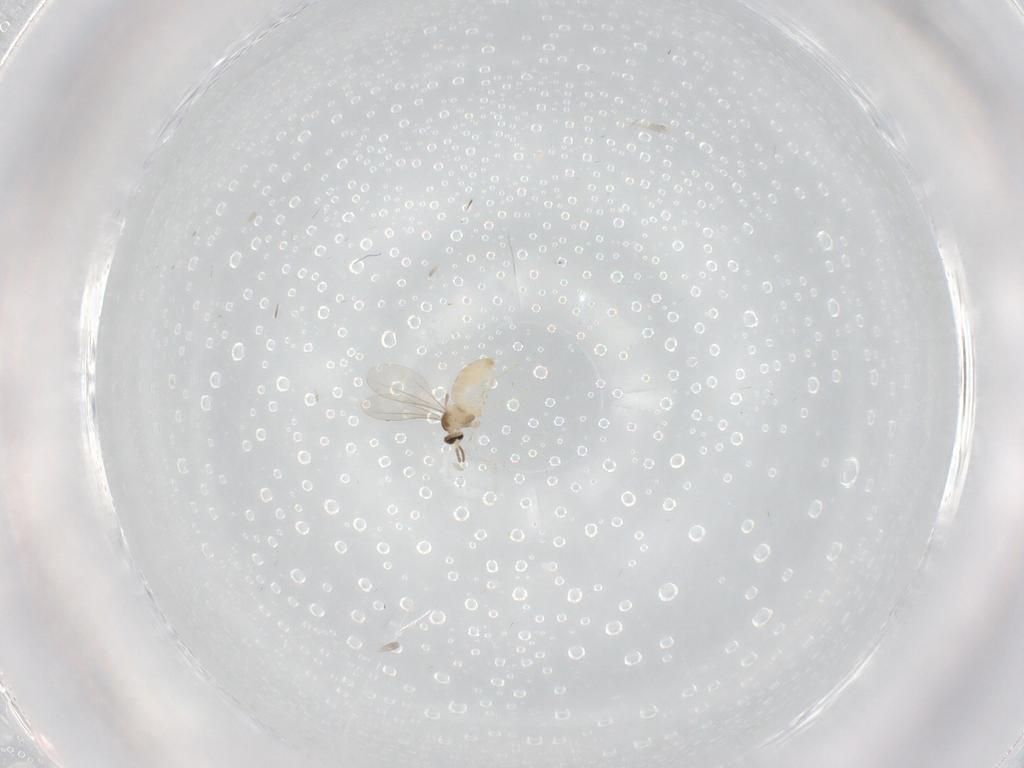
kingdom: Animalia
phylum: Arthropoda
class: Insecta
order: Diptera
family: Cecidomyiidae
